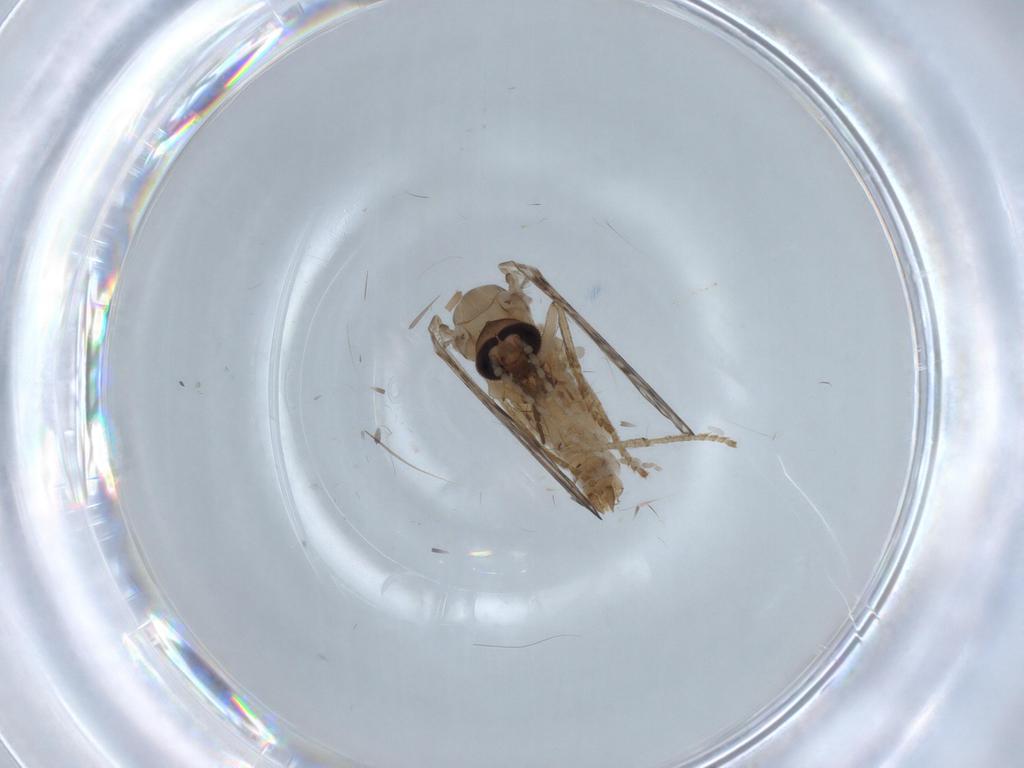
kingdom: Animalia
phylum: Arthropoda
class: Insecta
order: Diptera
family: Psychodidae
